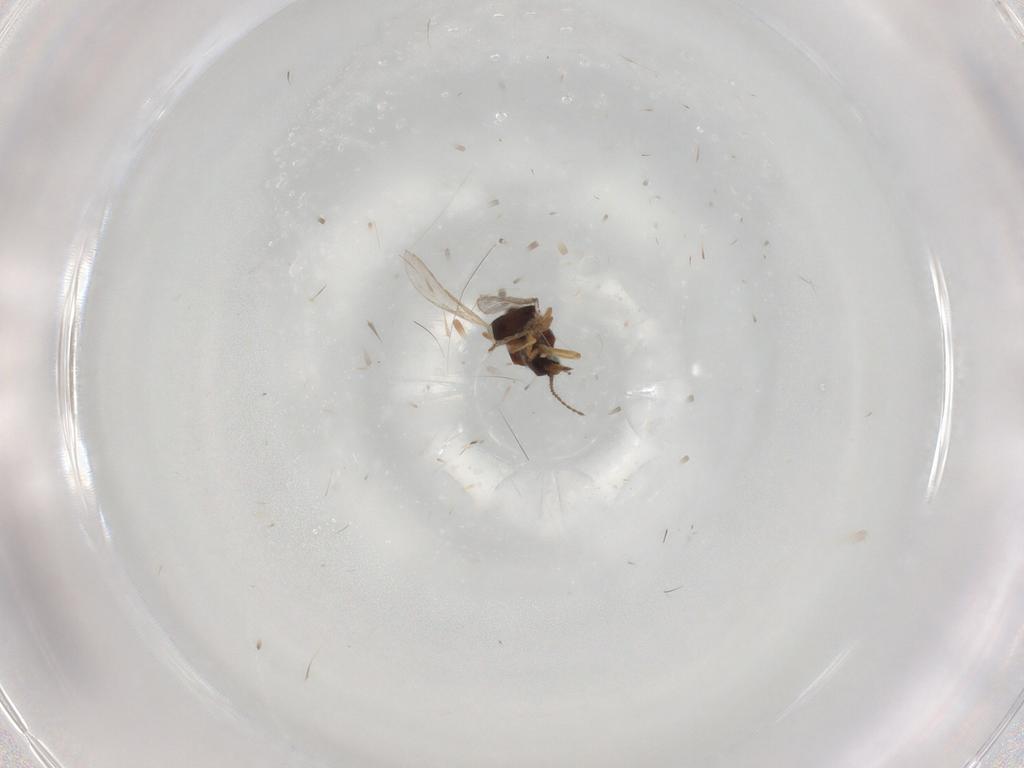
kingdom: Animalia
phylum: Arthropoda
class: Insecta
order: Diptera
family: Ceratopogonidae
